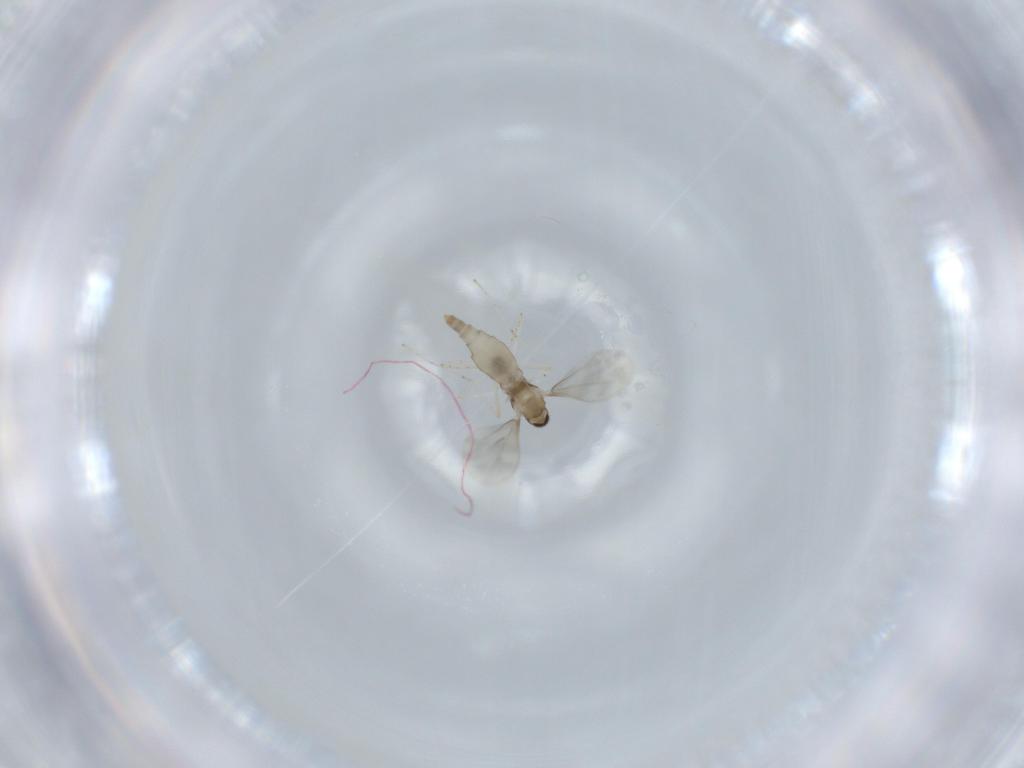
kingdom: Animalia
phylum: Arthropoda
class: Insecta
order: Diptera
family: Cecidomyiidae
